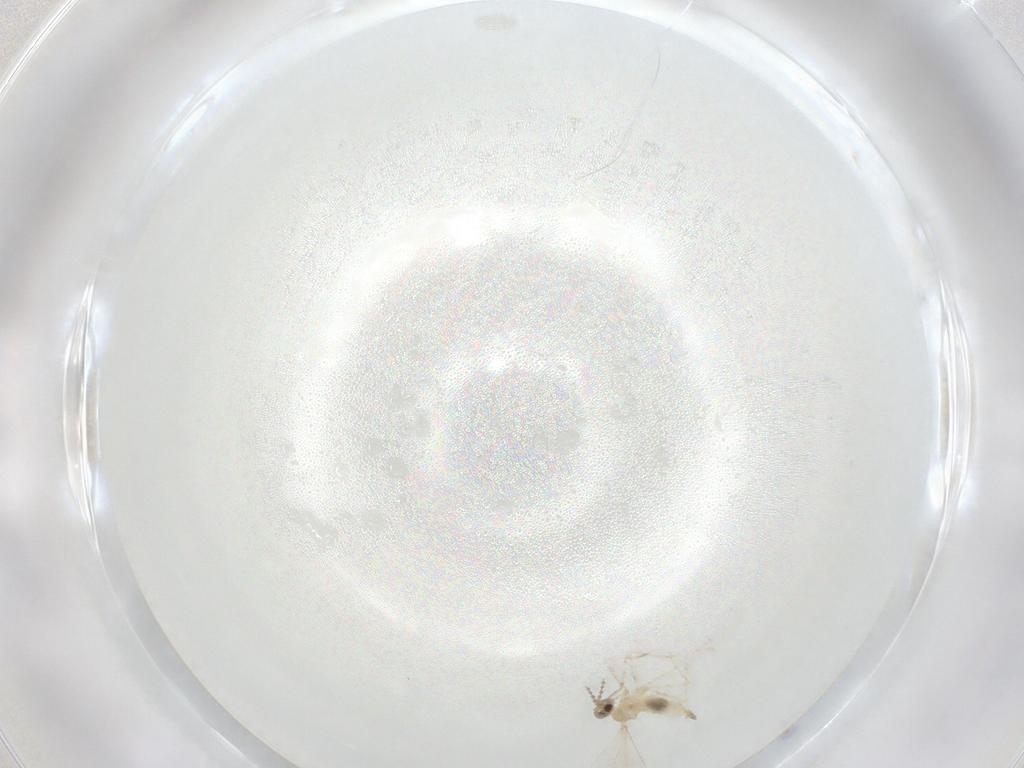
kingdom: Animalia
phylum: Arthropoda
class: Insecta
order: Diptera
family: Cecidomyiidae
